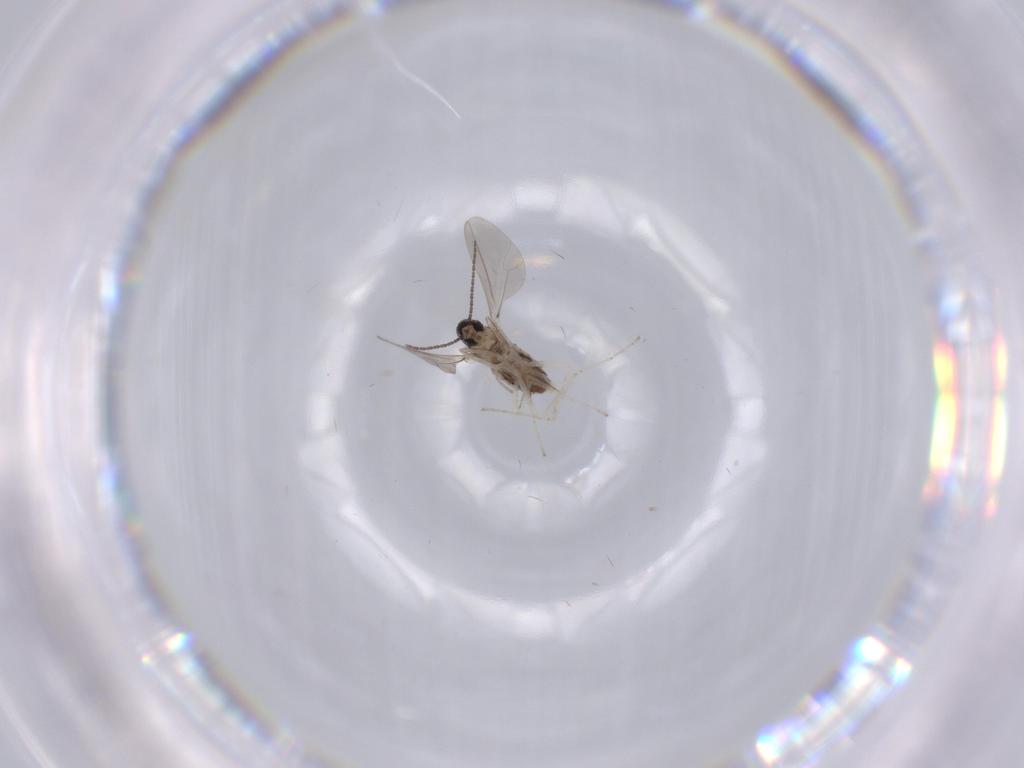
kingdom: Animalia
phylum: Arthropoda
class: Insecta
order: Diptera
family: Cecidomyiidae
